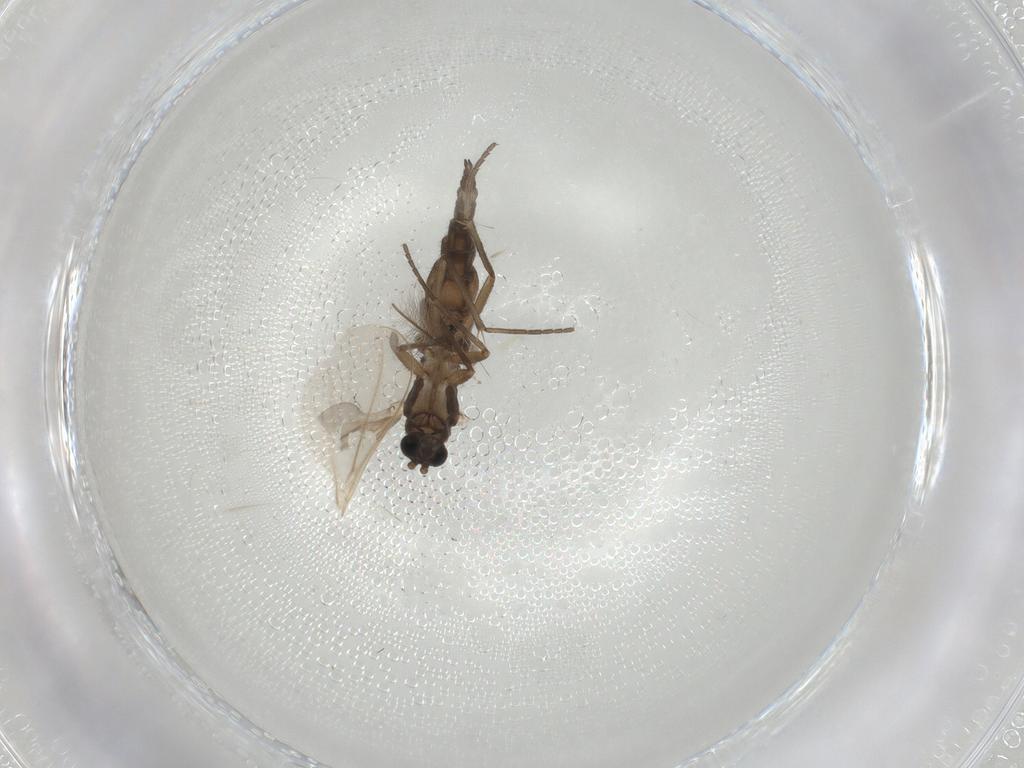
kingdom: Animalia
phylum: Arthropoda
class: Insecta
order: Diptera
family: Sciaridae
